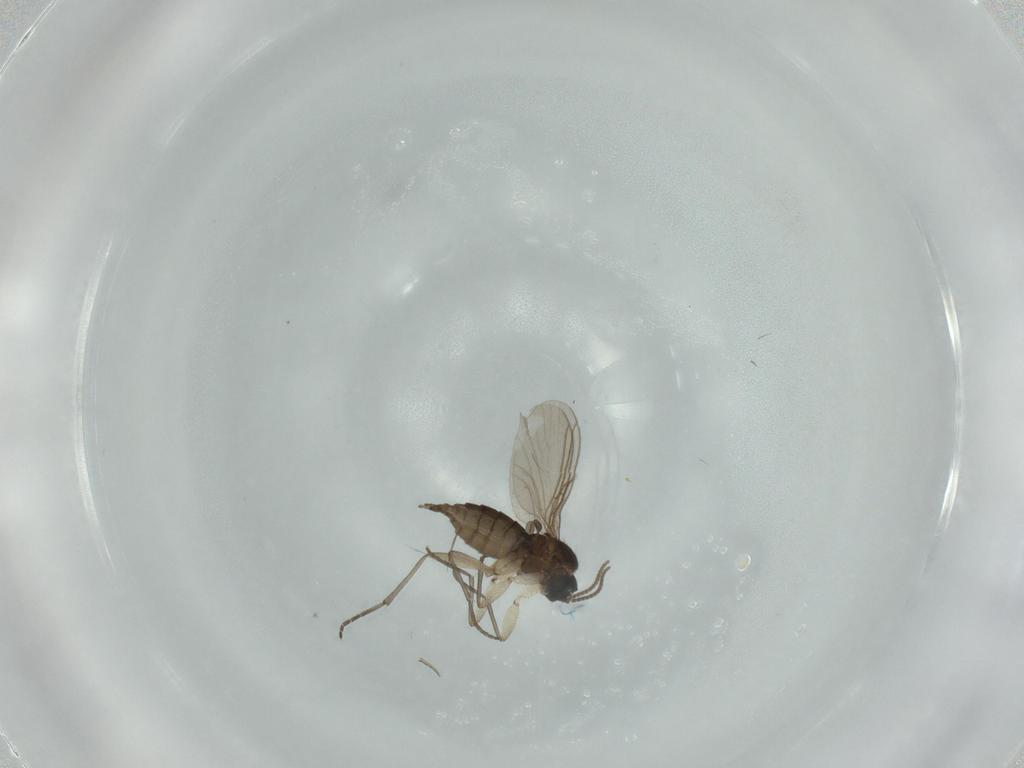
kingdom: Animalia
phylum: Arthropoda
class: Insecta
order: Diptera
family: Sciaridae
